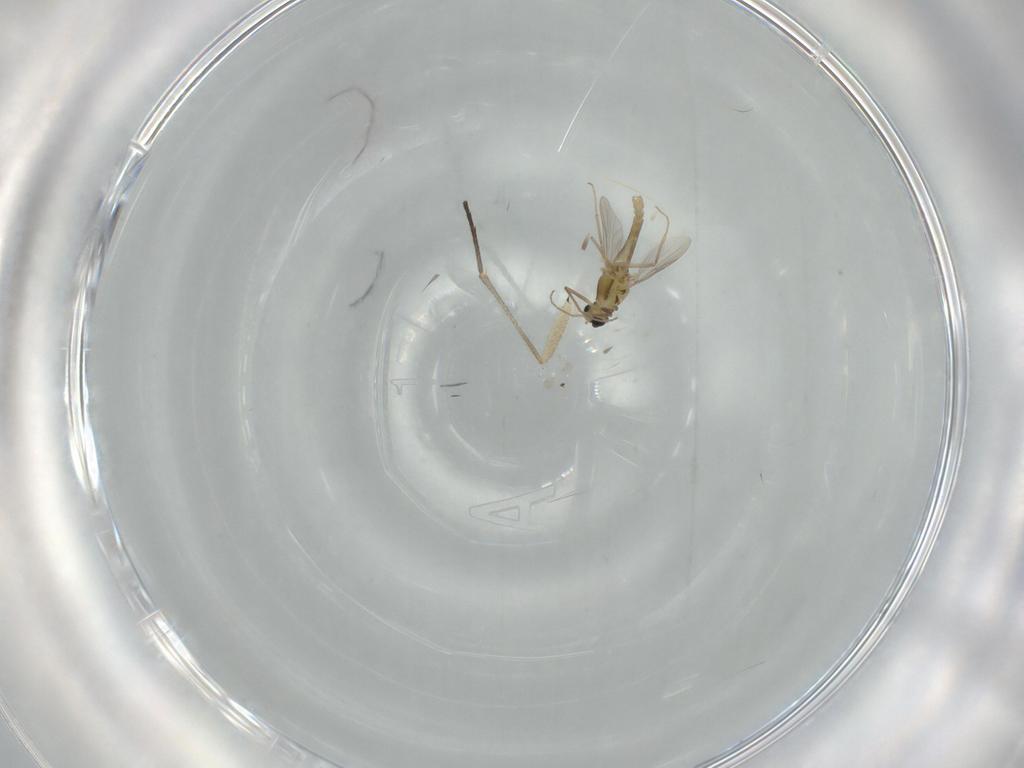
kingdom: Animalia
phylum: Arthropoda
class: Insecta
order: Diptera
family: Chironomidae
